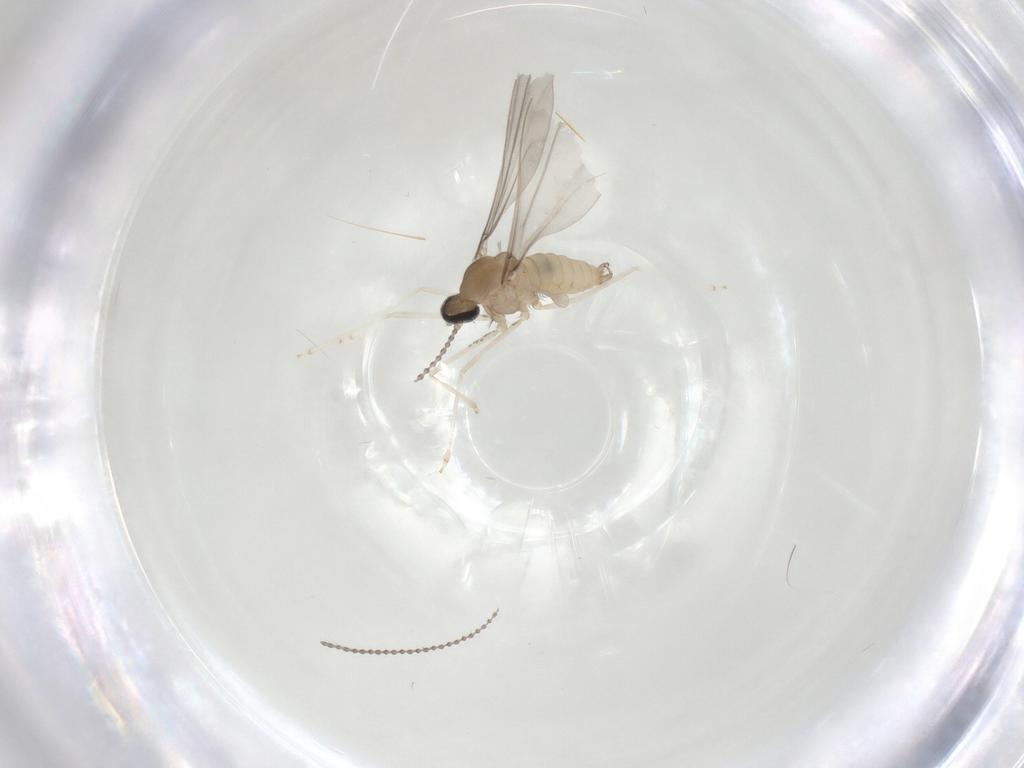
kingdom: Animalia
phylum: Arthropoda
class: Insecta
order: Diptera
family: Cecidomyiidae
